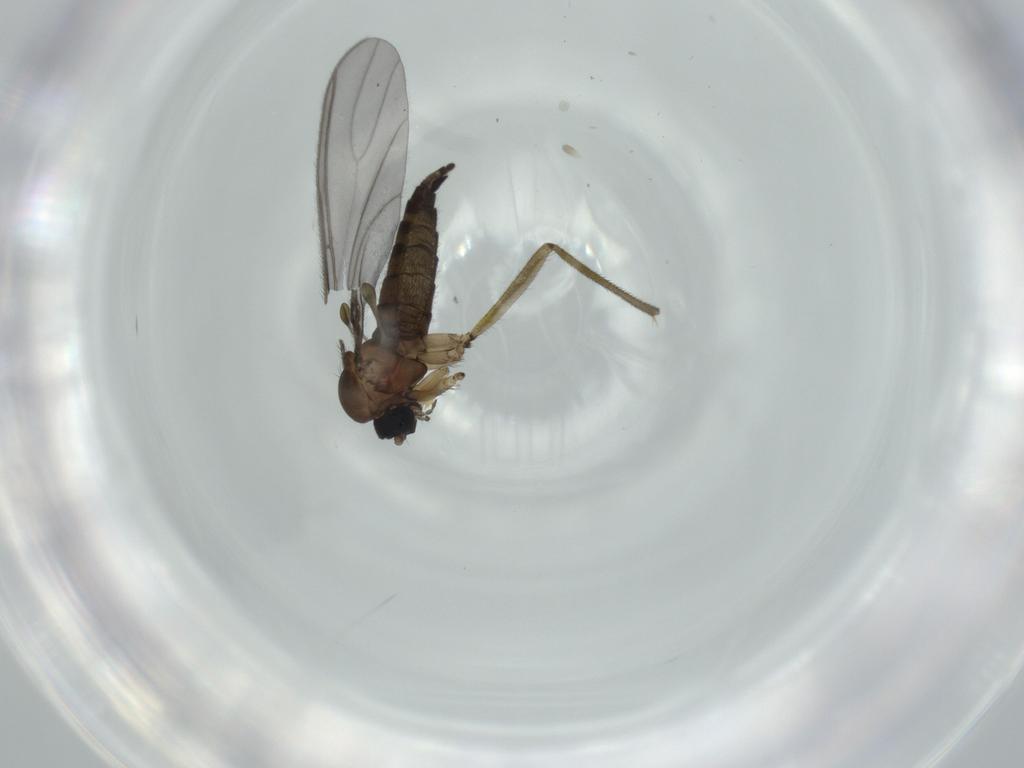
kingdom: Animalia
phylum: Arthropoda
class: Insecta
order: Diptera
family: Sciaridae
